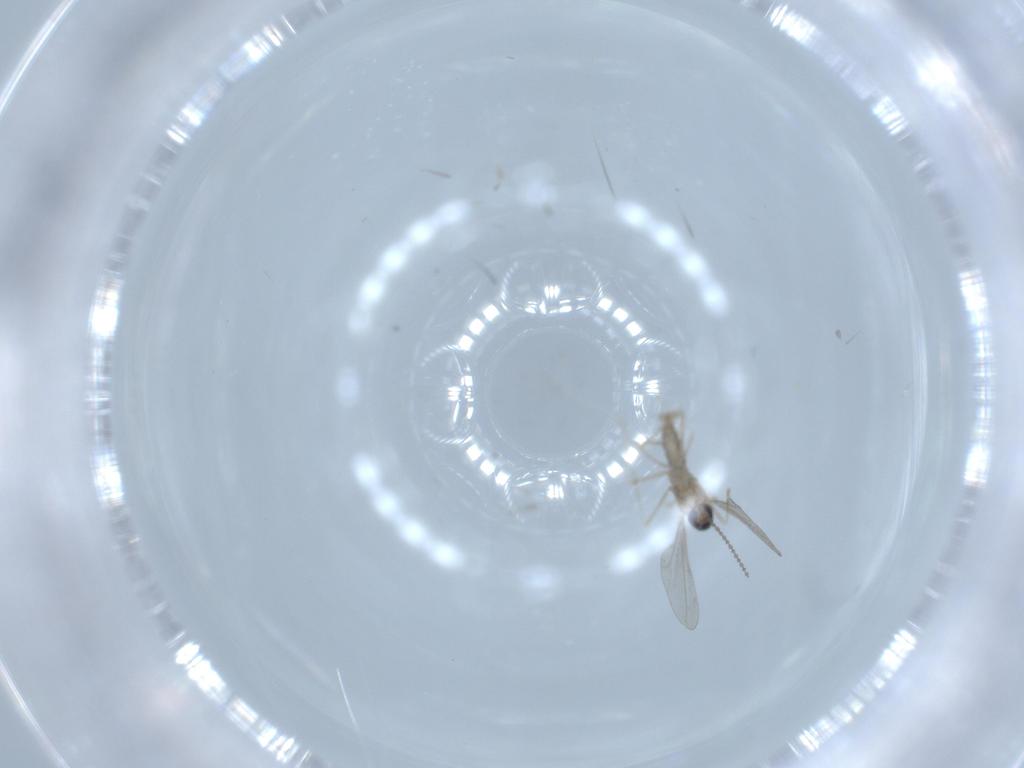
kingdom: Animalia
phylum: Arthropoda
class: Insecta
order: Diptera
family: Cecidomyiidae
